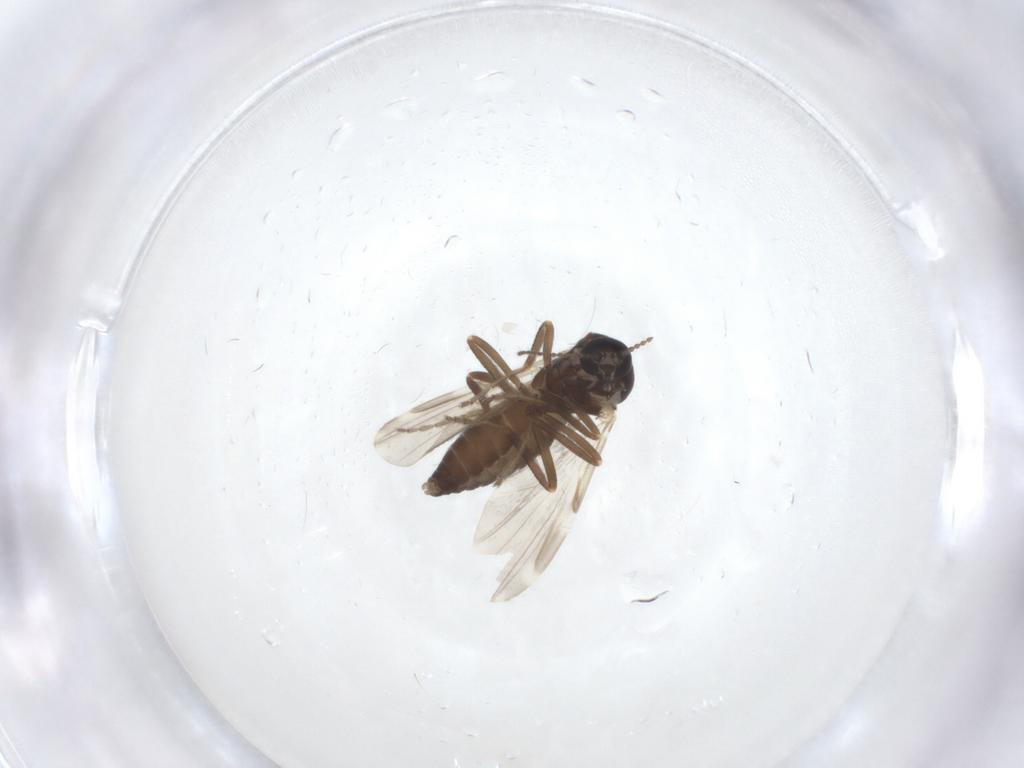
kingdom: Animalia
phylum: Arthropoda
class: Insecta
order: Diptera
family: Ceratopogonidae
